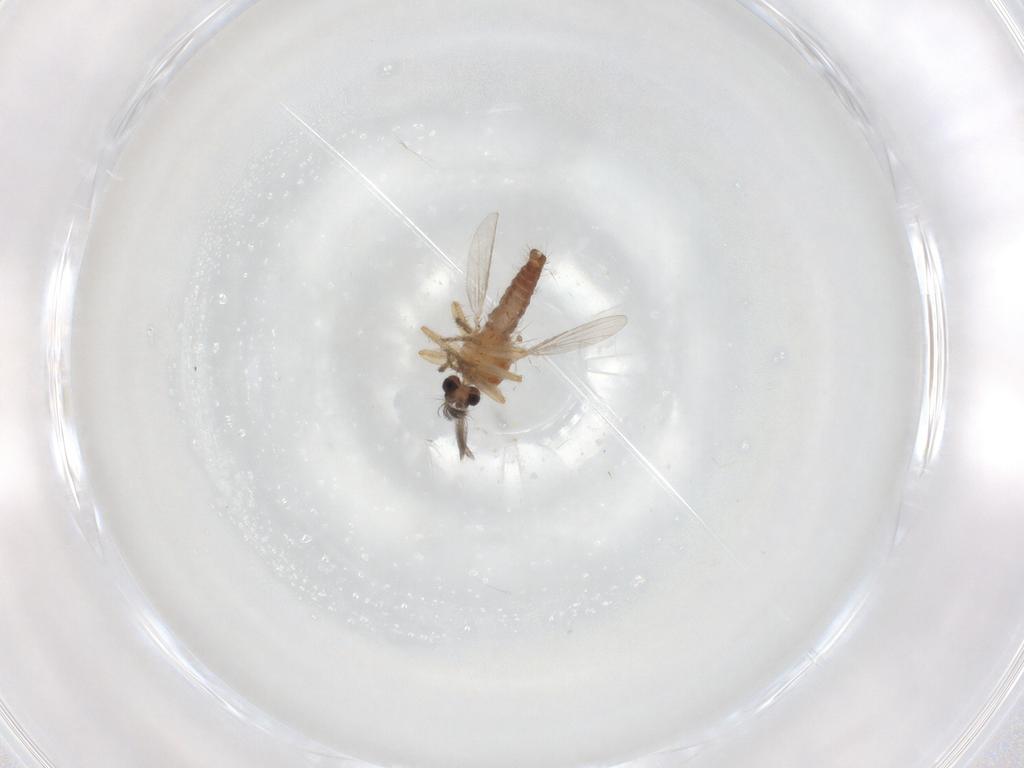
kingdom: Animalia
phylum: Arthropoda
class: Insecta
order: Diptera
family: Ceratopogonidae
